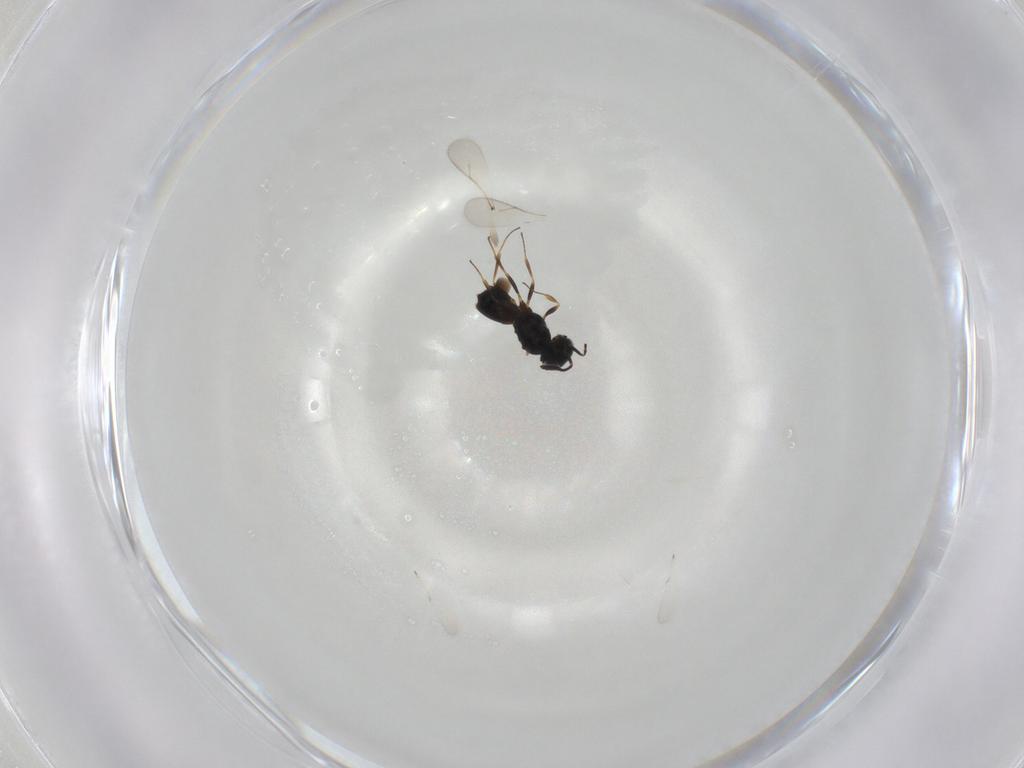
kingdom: Animalia
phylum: Arthropoda
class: Insecta
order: Hymenoptera
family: Scelionidae
